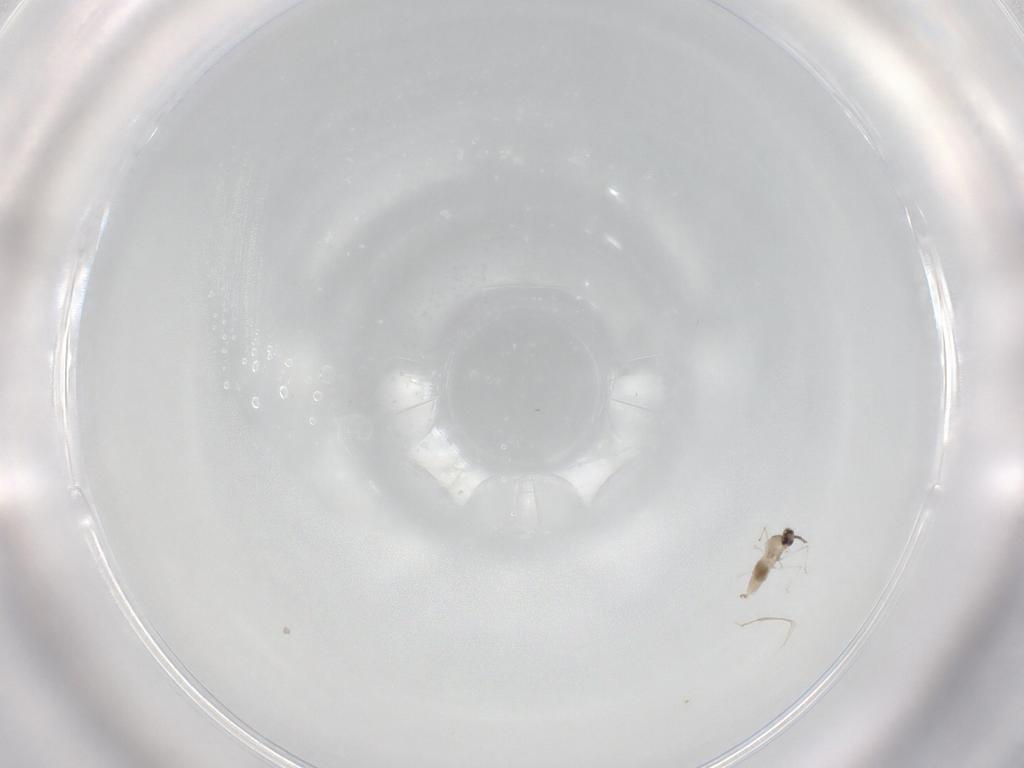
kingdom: Animalia
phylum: Arthropoda
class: Insecta
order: Diptera
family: Cecidomyiidae
